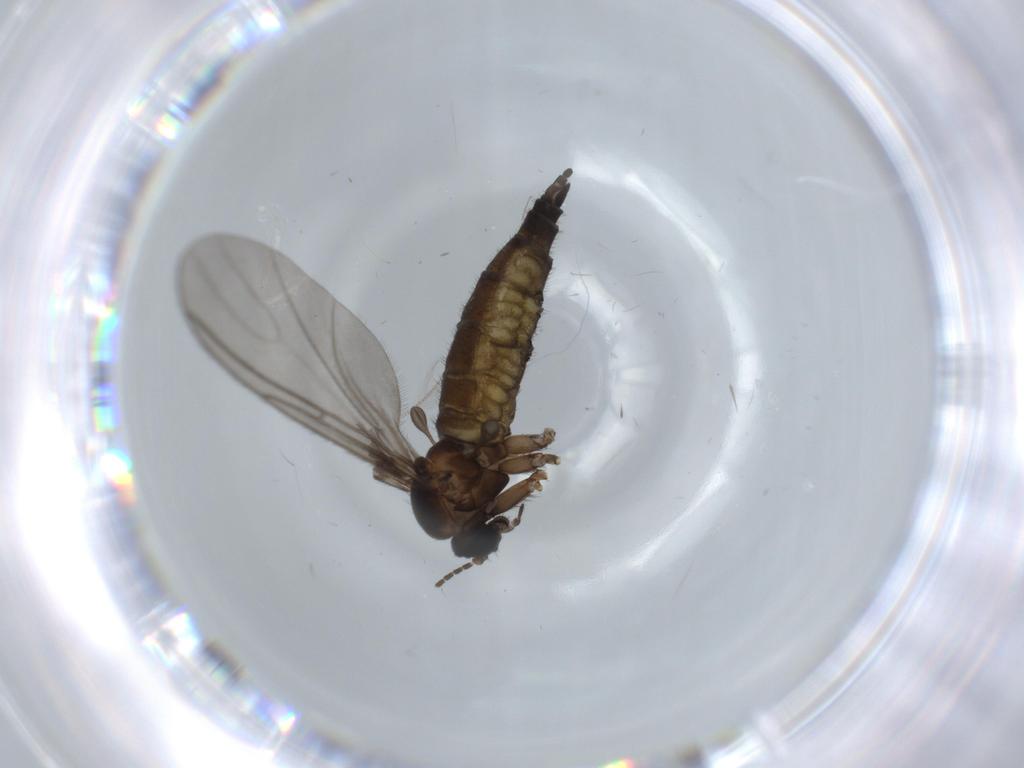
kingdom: Animalia
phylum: Arthropoda
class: Insecta
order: Diptera
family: Sciaridae
